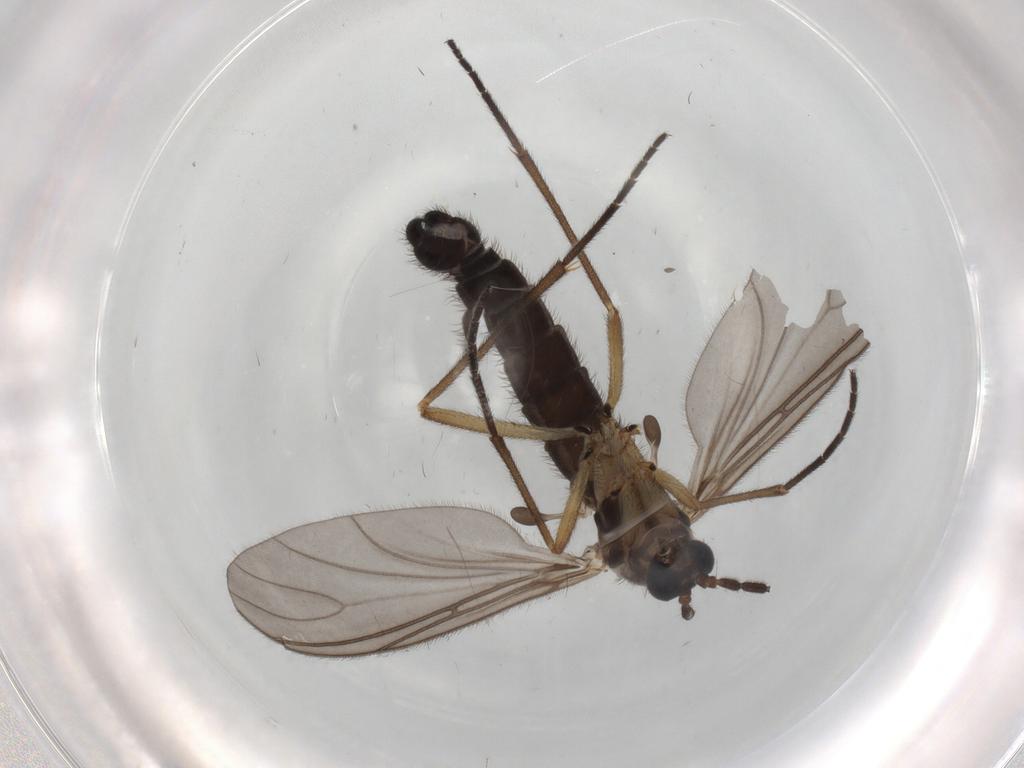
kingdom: Animalia
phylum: Arthropoda
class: Insecta
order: Diptera
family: Sciaridae
